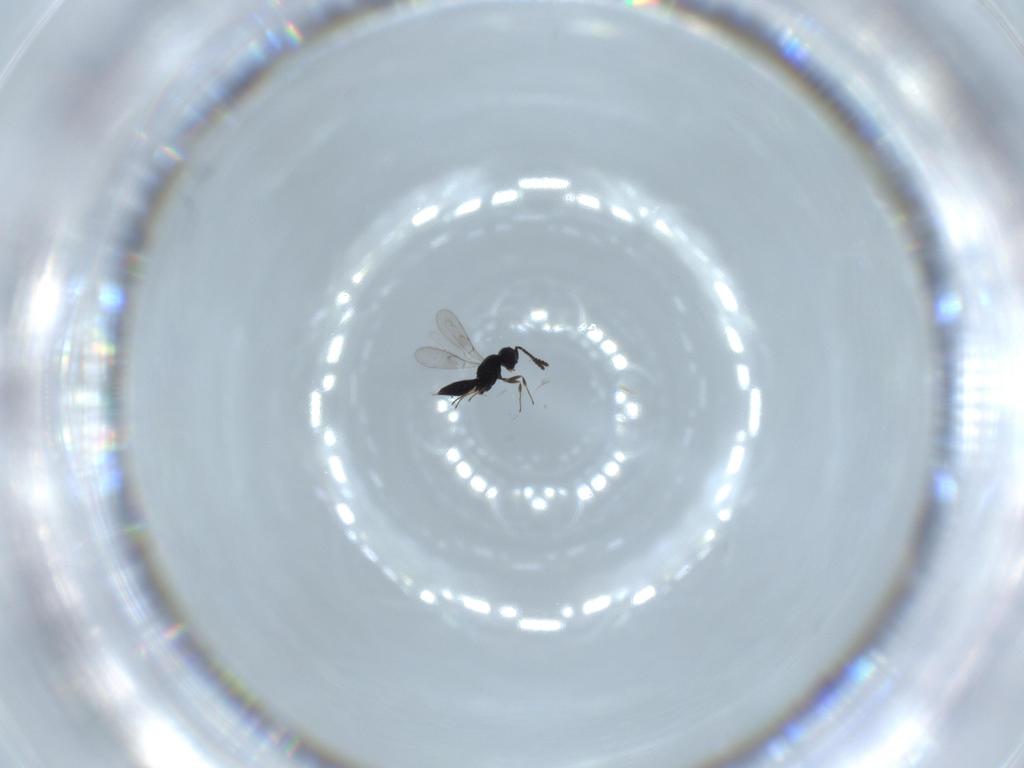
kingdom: Animalia
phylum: Arthropoda
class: Insecta
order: Hymenoptera
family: Scelionidae
